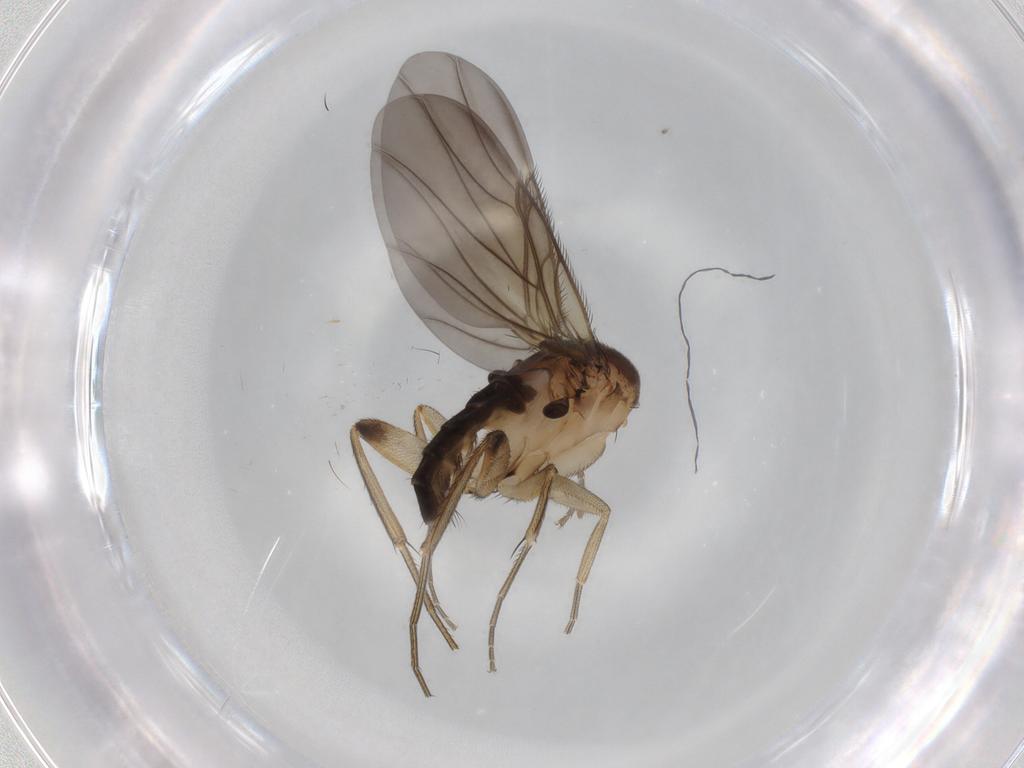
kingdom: Animalia
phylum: Arthropoda
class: Insecta
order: Diptera
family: Phoridae
